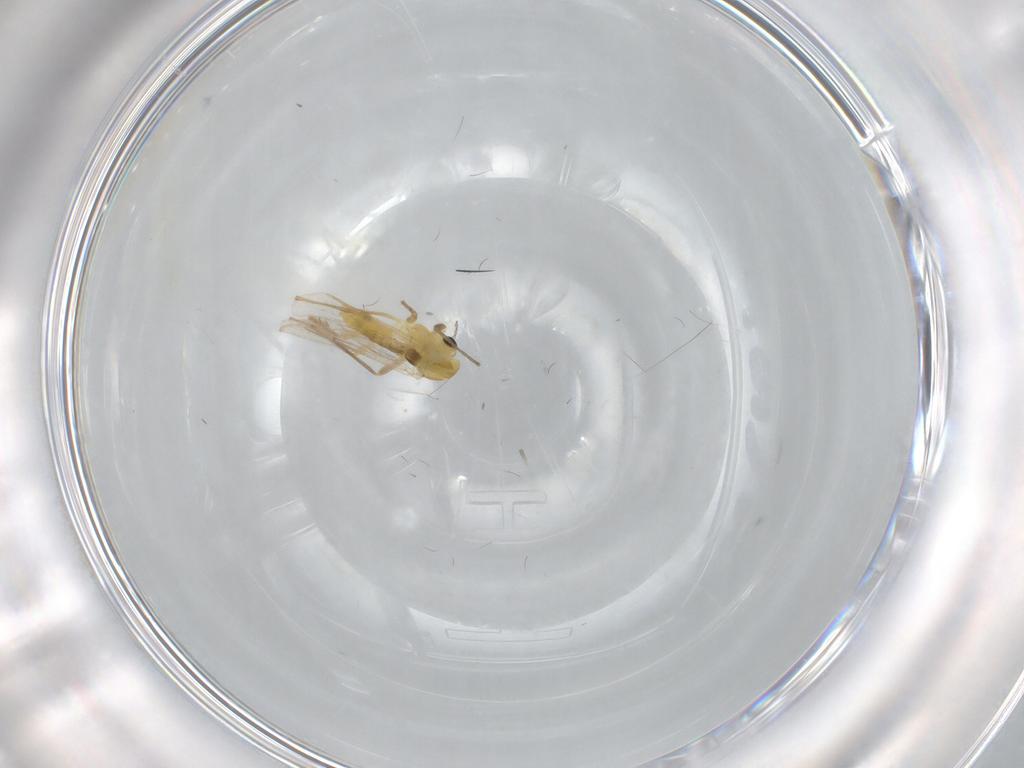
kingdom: Animalia
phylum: Arthropoda
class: Insecta
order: Diptera
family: Chironomidae
